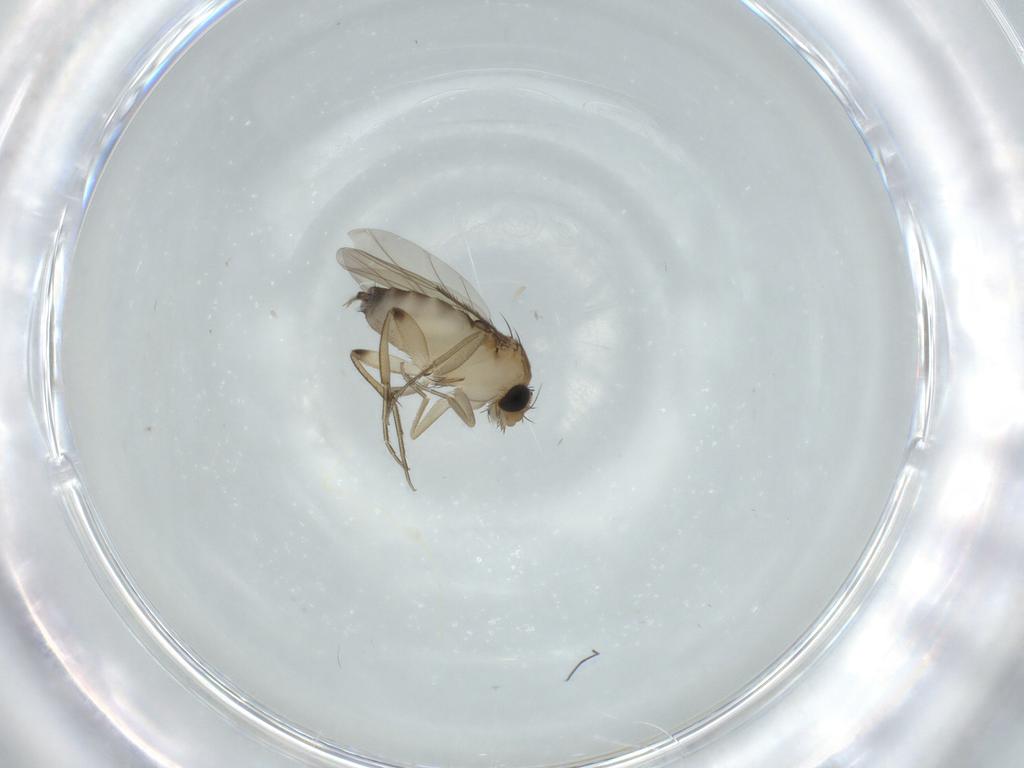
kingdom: Animalia
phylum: Arthropoda
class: Insecta
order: Diptera
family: Phoridae
